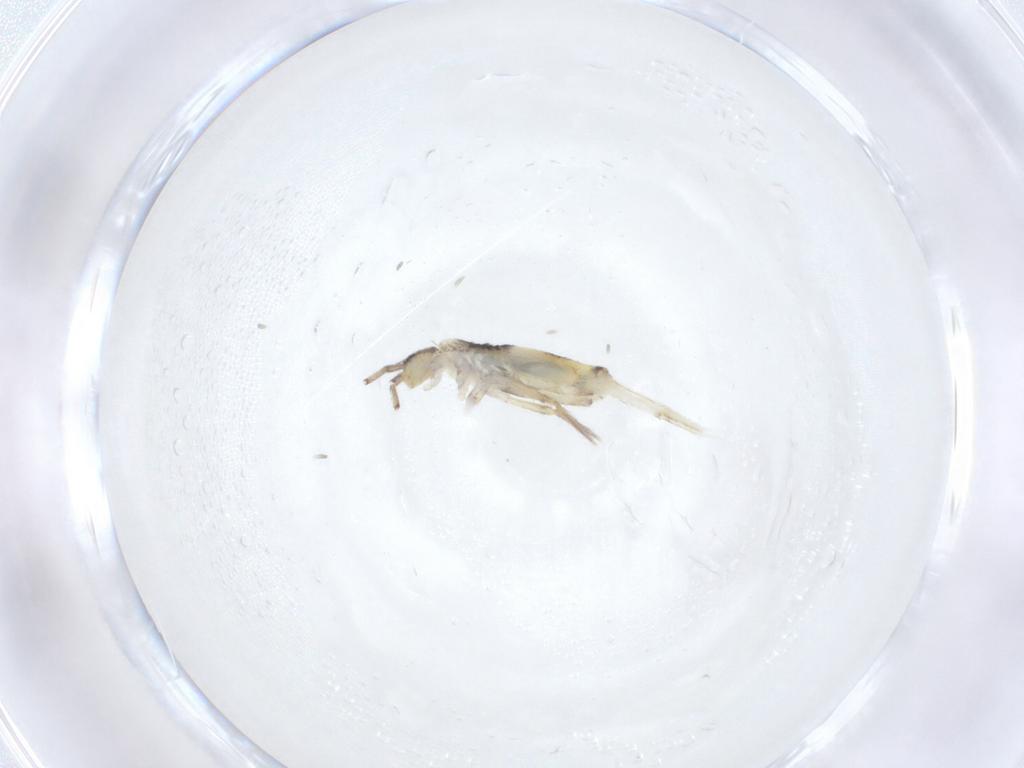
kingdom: Animalia
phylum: Arthropoda
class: Collembola
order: Entomobryomorpha
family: Entomobryidae
